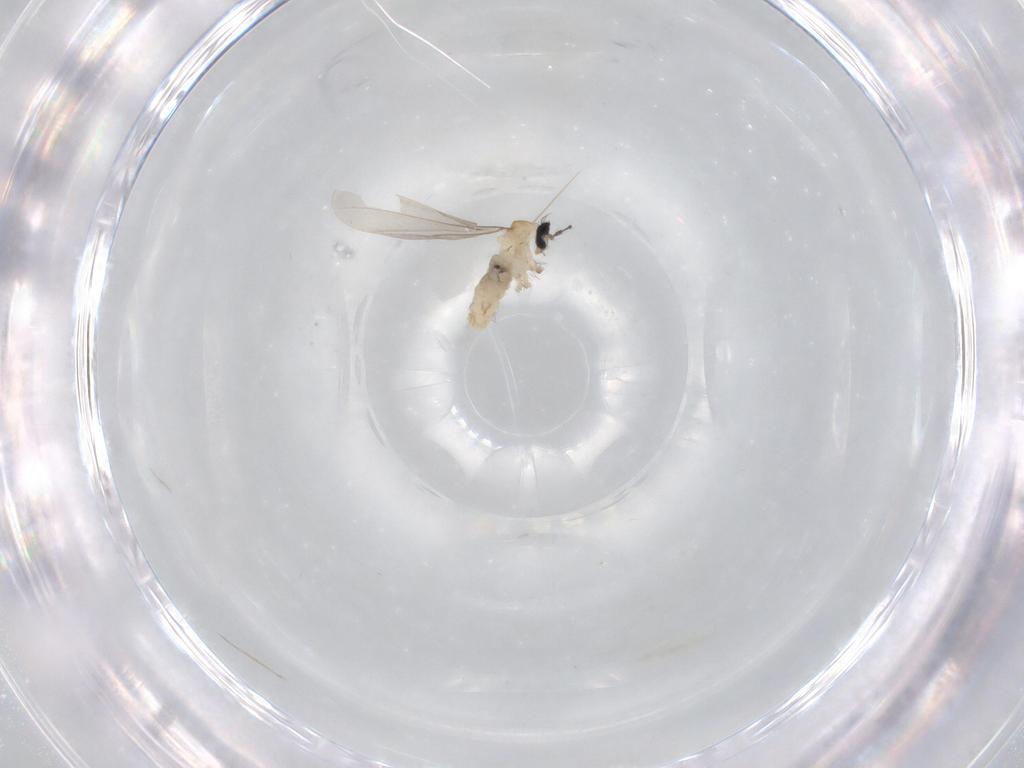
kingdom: Animalia
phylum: Arthropoda
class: Insecta
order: Diptera
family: Cecidomyiidae
